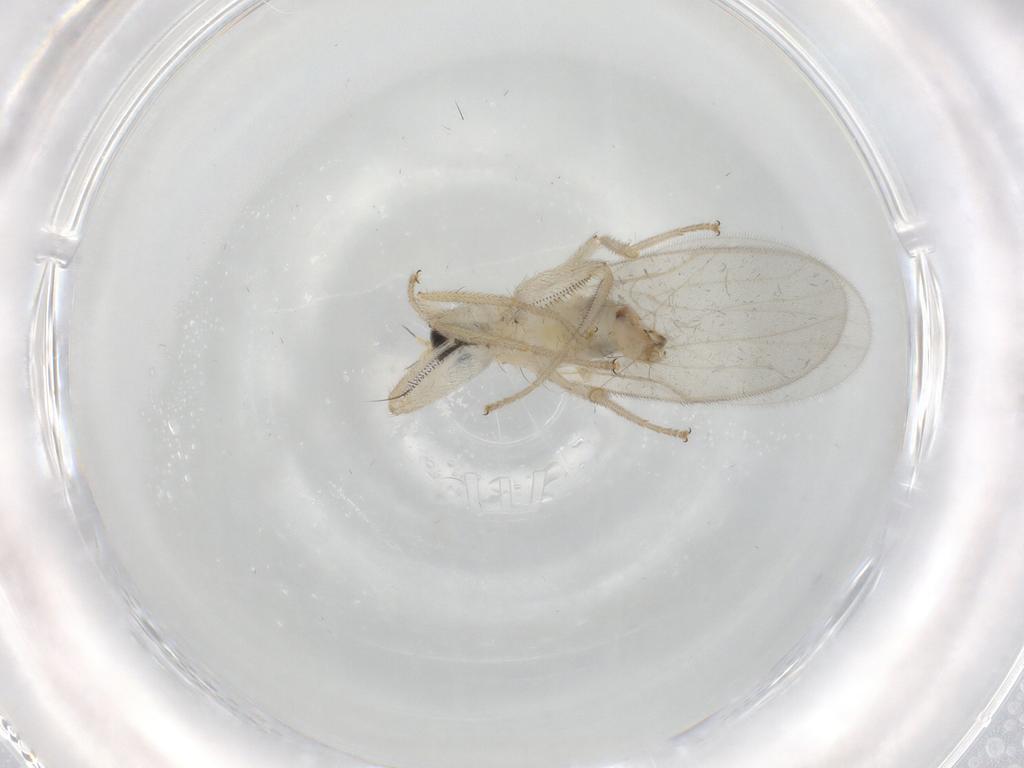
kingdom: Animalia
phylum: Arthropoda
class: Insecta
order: Diptera
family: Hybotidae
